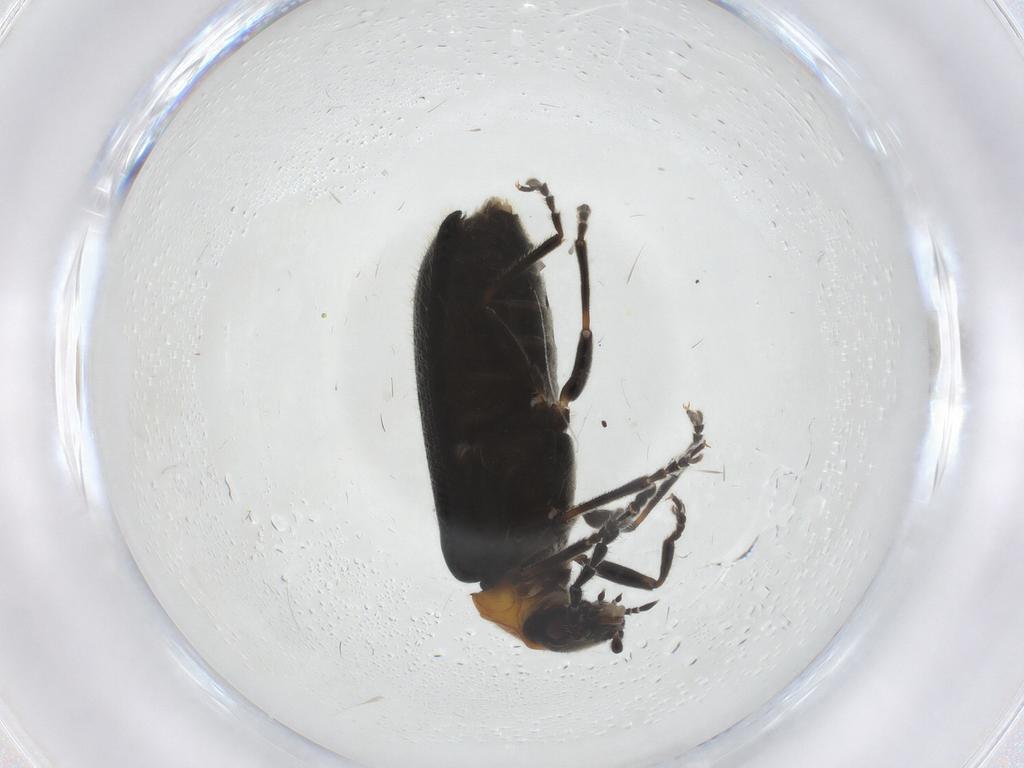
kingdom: Animalia
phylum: Arthropoda
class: Insecta
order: Coleoptera
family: Cantharidae
